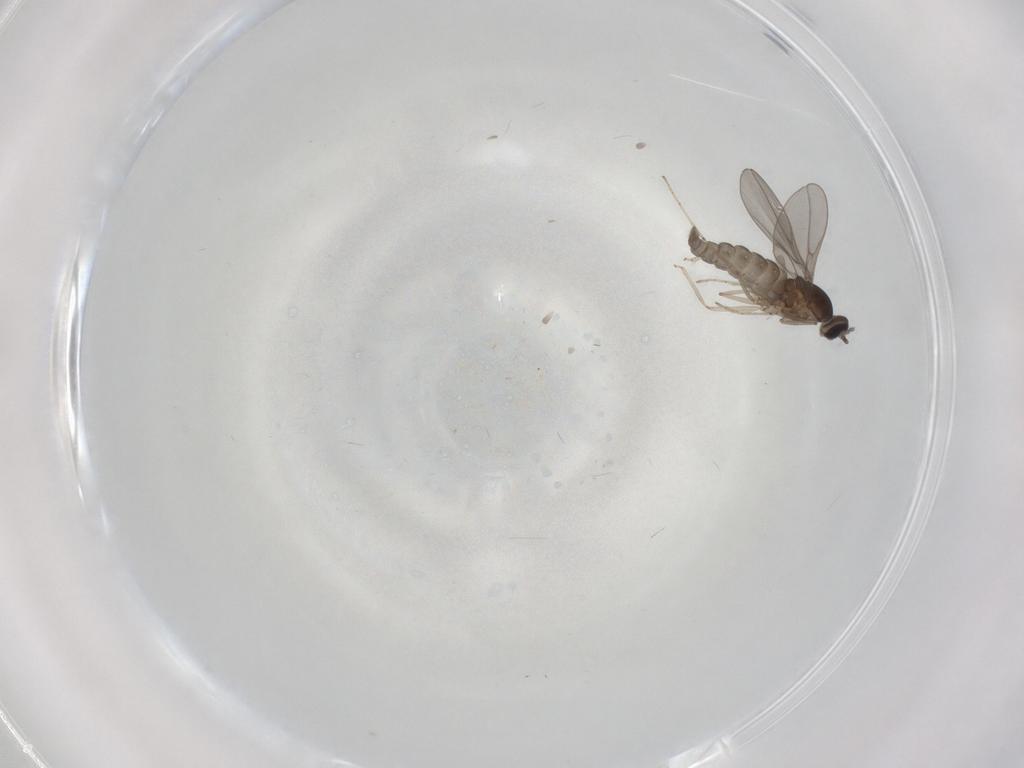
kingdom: Animalia
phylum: Arthropoda
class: Insecta
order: Diptera
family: Cecidomyiidae
